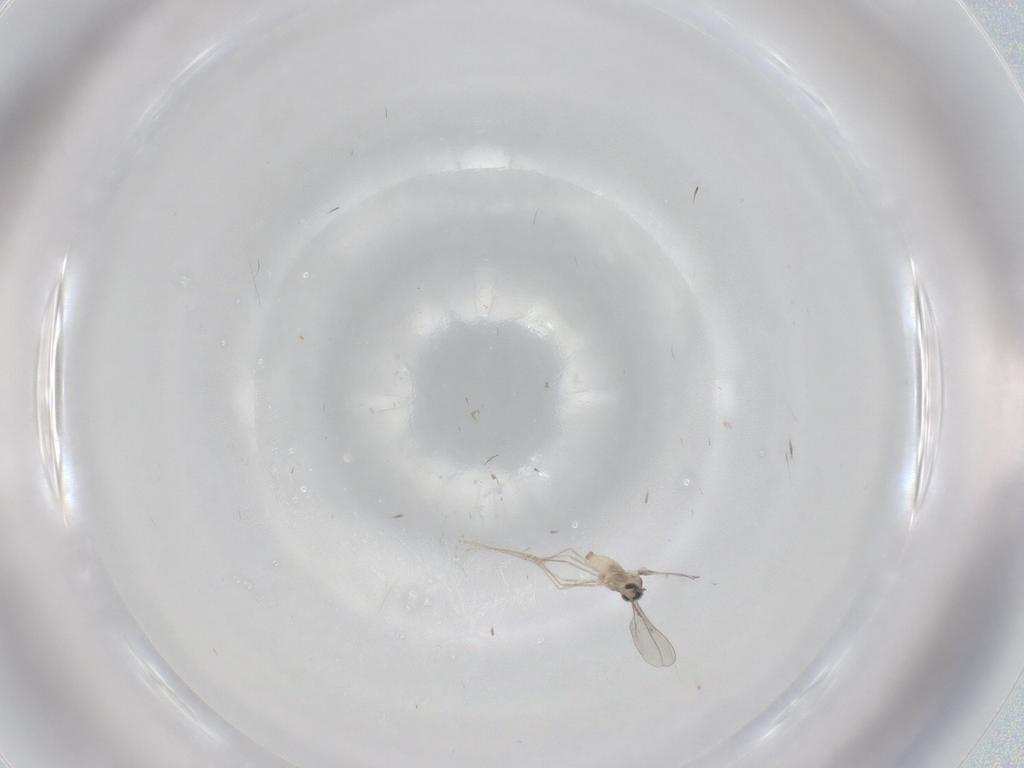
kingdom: Animalia
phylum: Arthropoda
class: Insecta
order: Diptera
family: Cecidomyiidae
